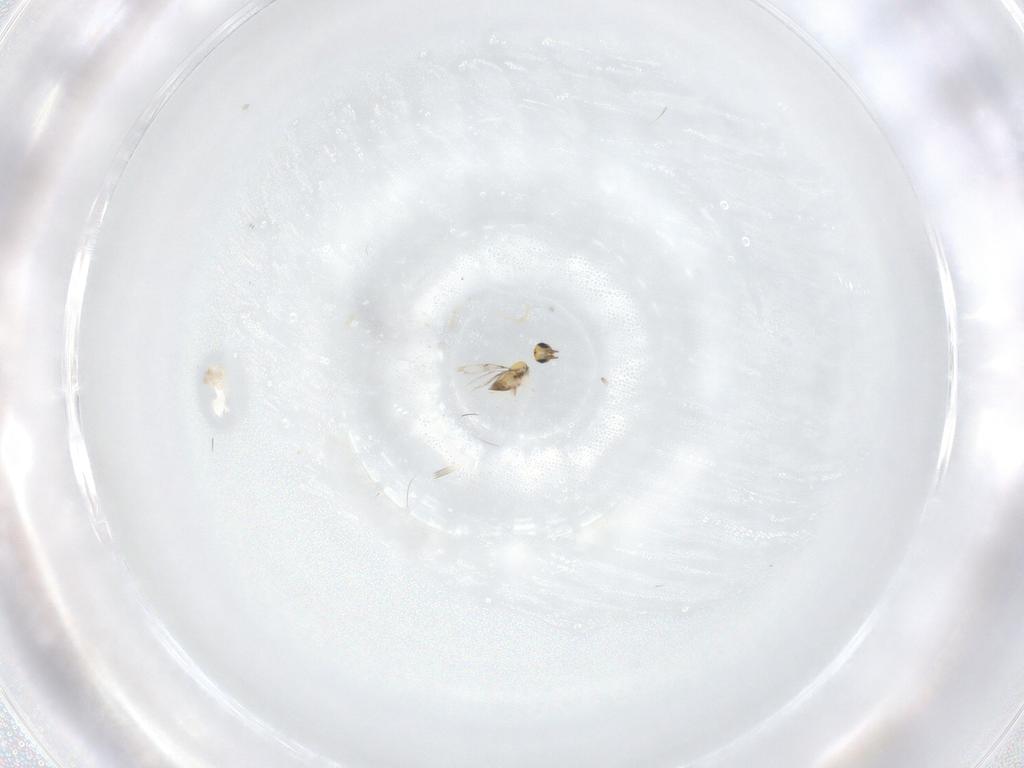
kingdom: Animalia
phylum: Arthropoda
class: Insecta
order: Hymenoptera
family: Trichogrammatidae
